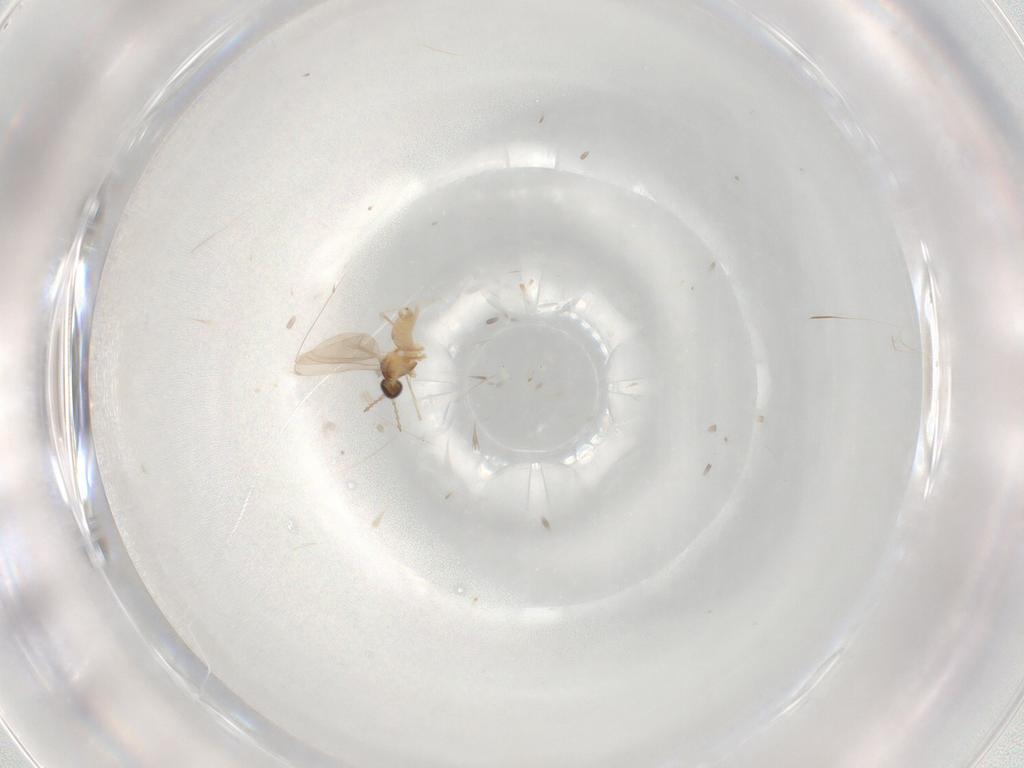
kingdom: Animalia
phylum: Arthropoda
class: Insecta
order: Diptera
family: Cecidomyiidae
